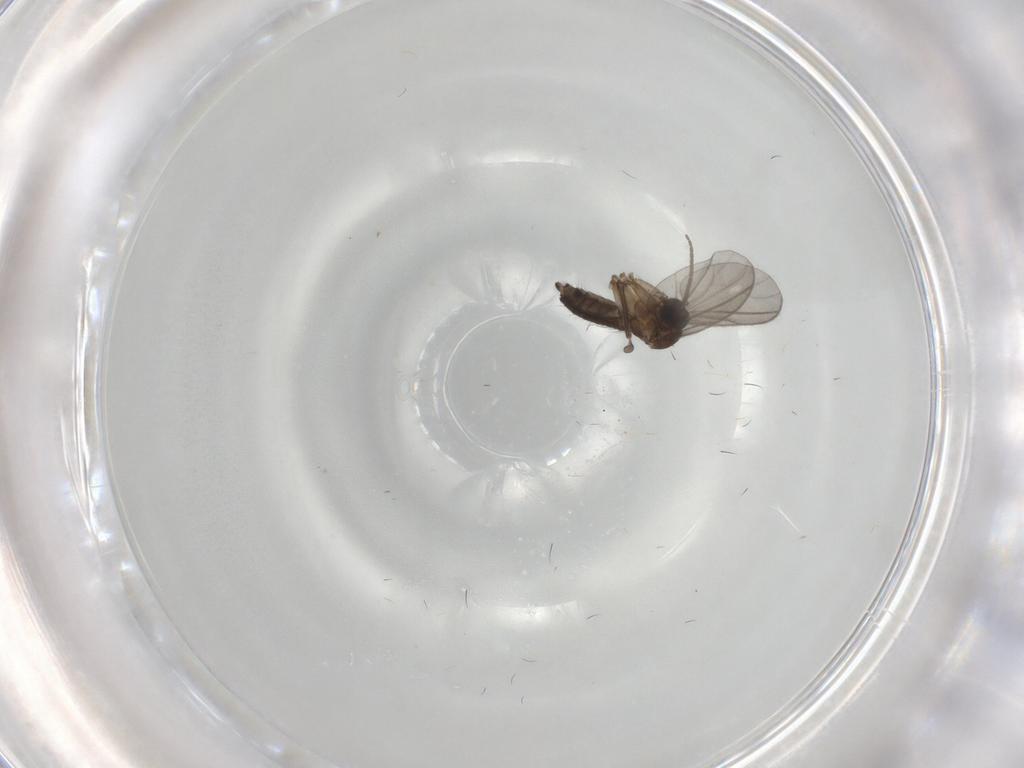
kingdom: Animalia
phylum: Arthropoda
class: Insecta
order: Diptera
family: Sciaridae
